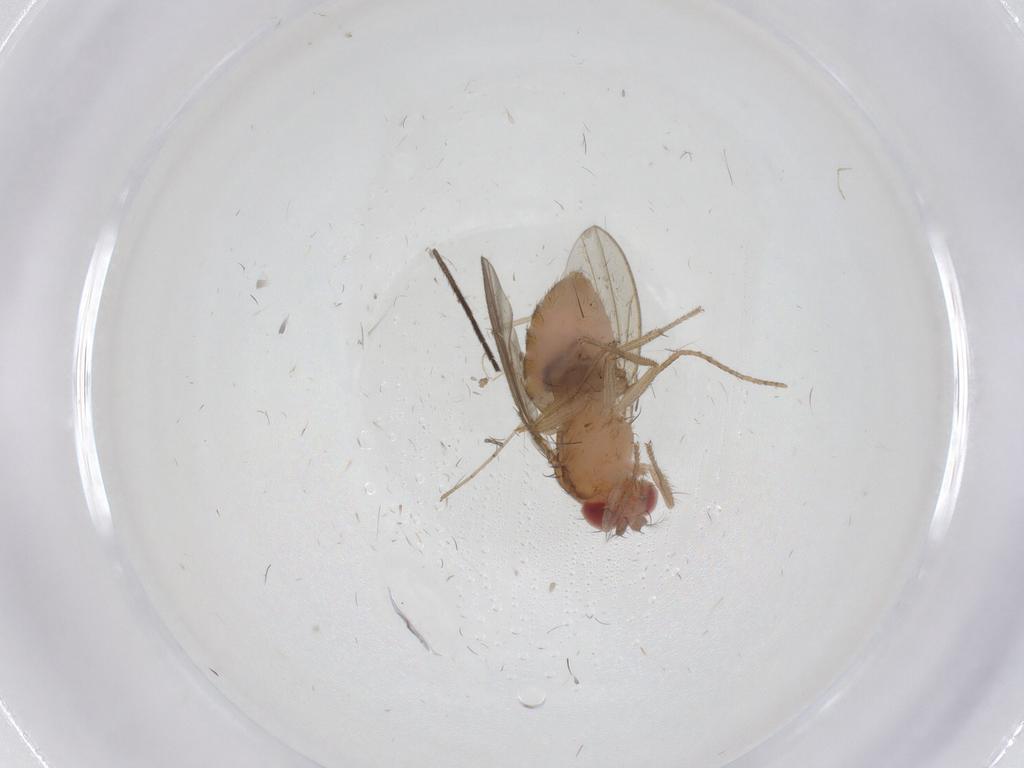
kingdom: Animalia
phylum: Arthropoda
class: Insecta
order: Diptera
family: Drosophilidae
